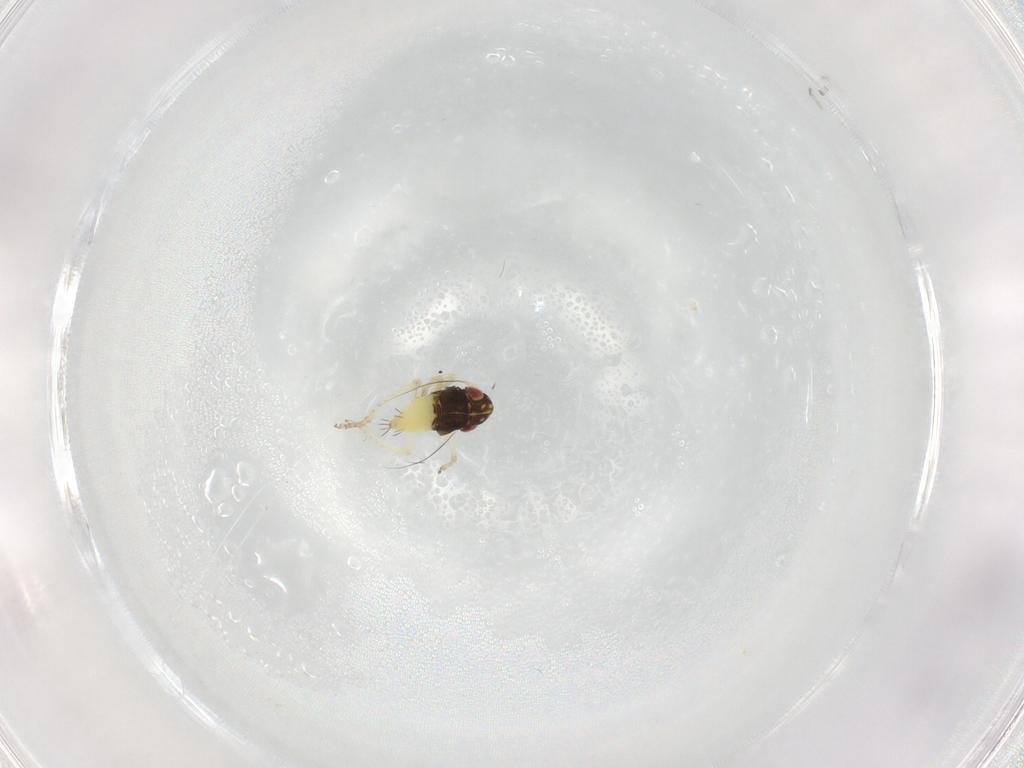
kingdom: Animalia
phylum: Arthropoda
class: Insecta
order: Hemiptera
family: Cicadellidae
